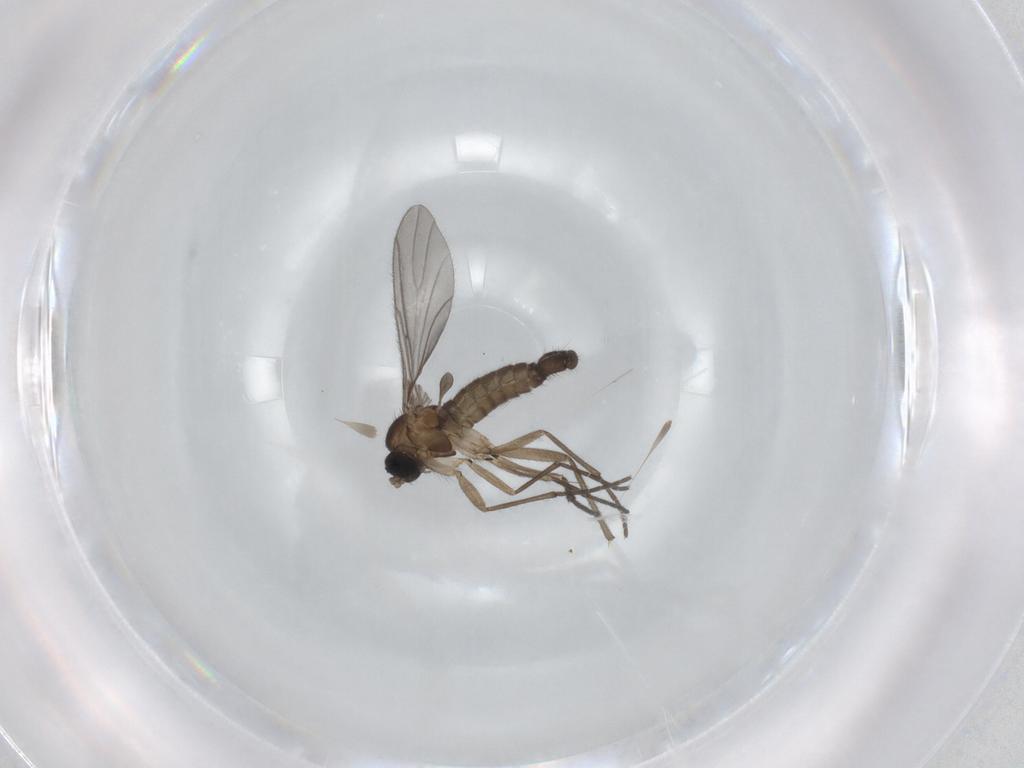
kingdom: Animalia
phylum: Arthropoda
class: Insecta
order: Diptera
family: Sciaridae
